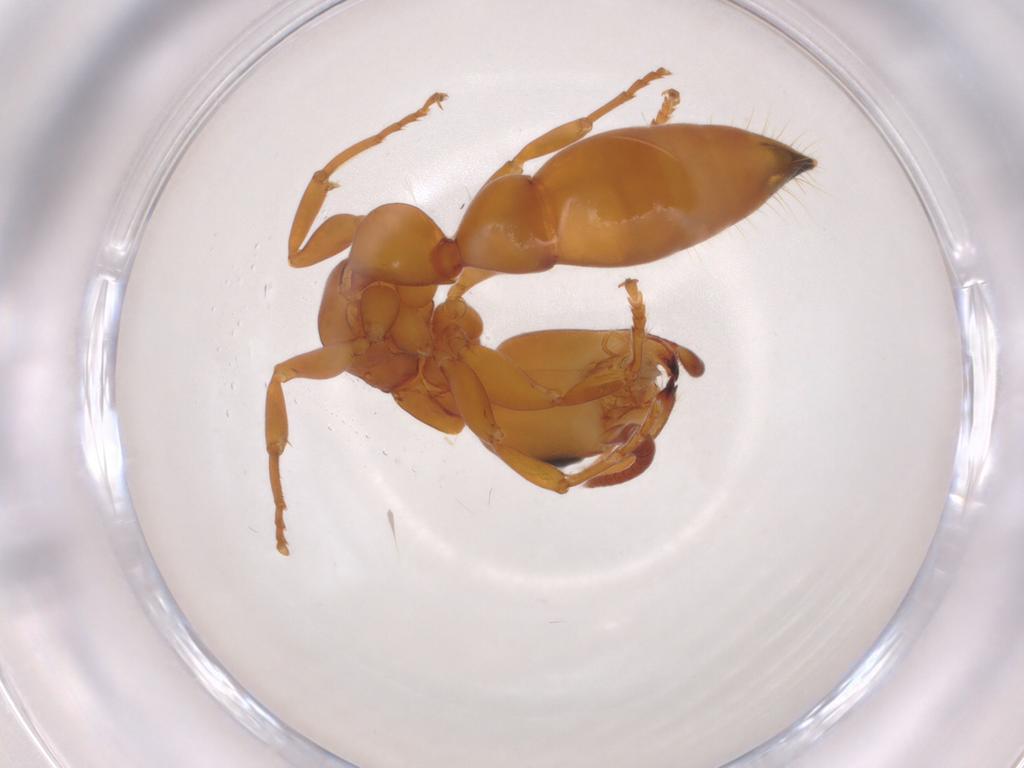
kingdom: Animalia
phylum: Arthropoda
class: Insecta
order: Hymenoptera
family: Formicidae
